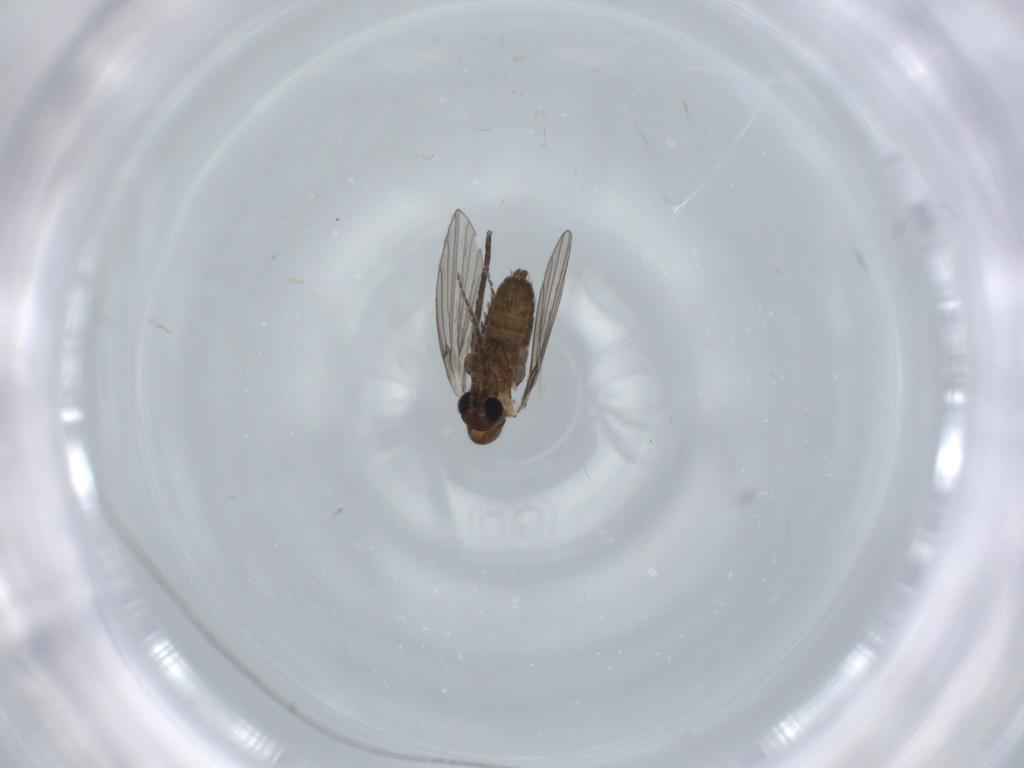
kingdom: Animalia
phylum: Arthropoda
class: Insecta
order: Diptera
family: Psychodidae
